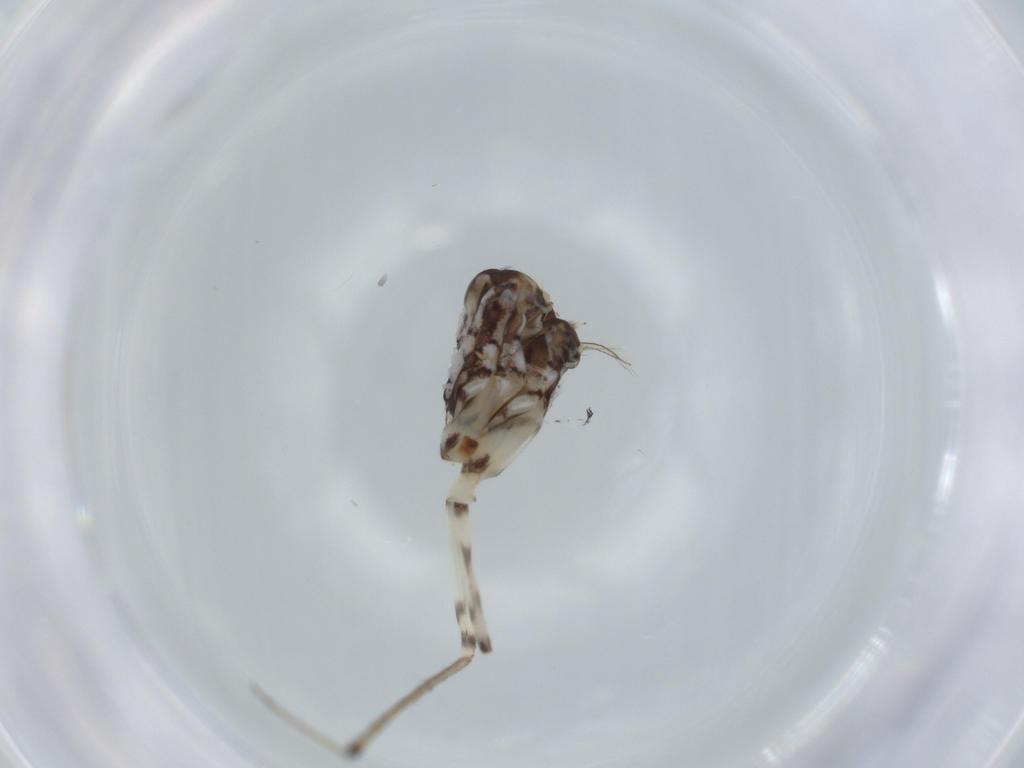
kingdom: Animalia
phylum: Arthropoda
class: Insecta
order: Psocodea
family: Ptiloneuridae
